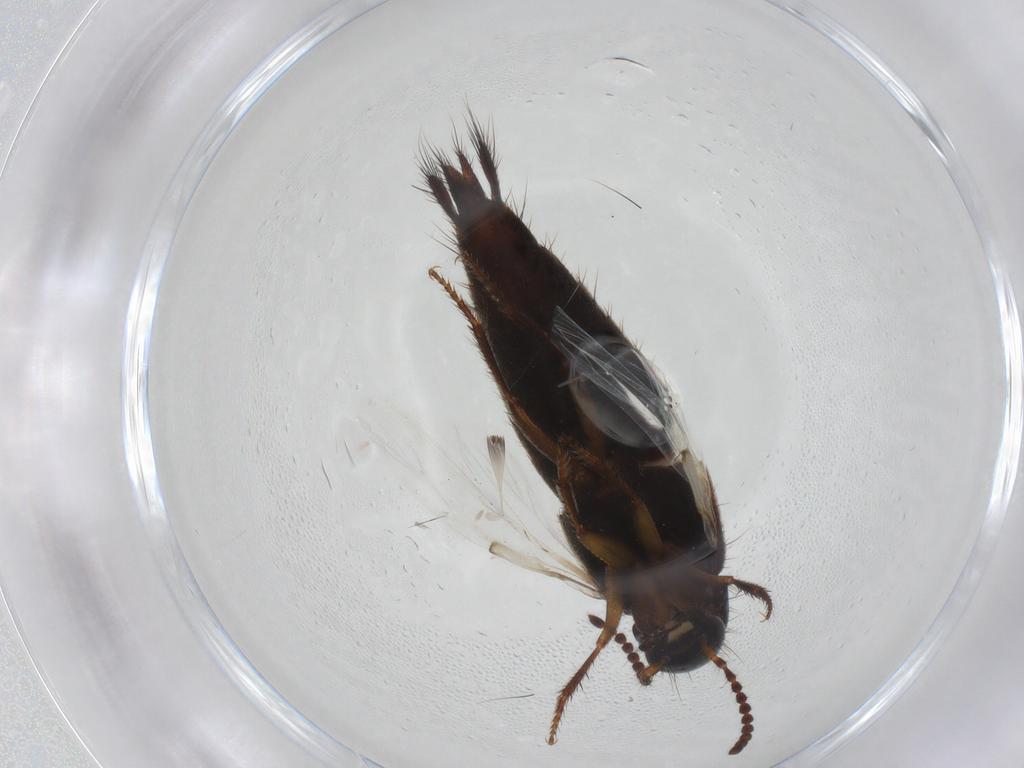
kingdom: Animalia
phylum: Arthropoda
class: Insecta
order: Coleoptera
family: Staphylinidae
